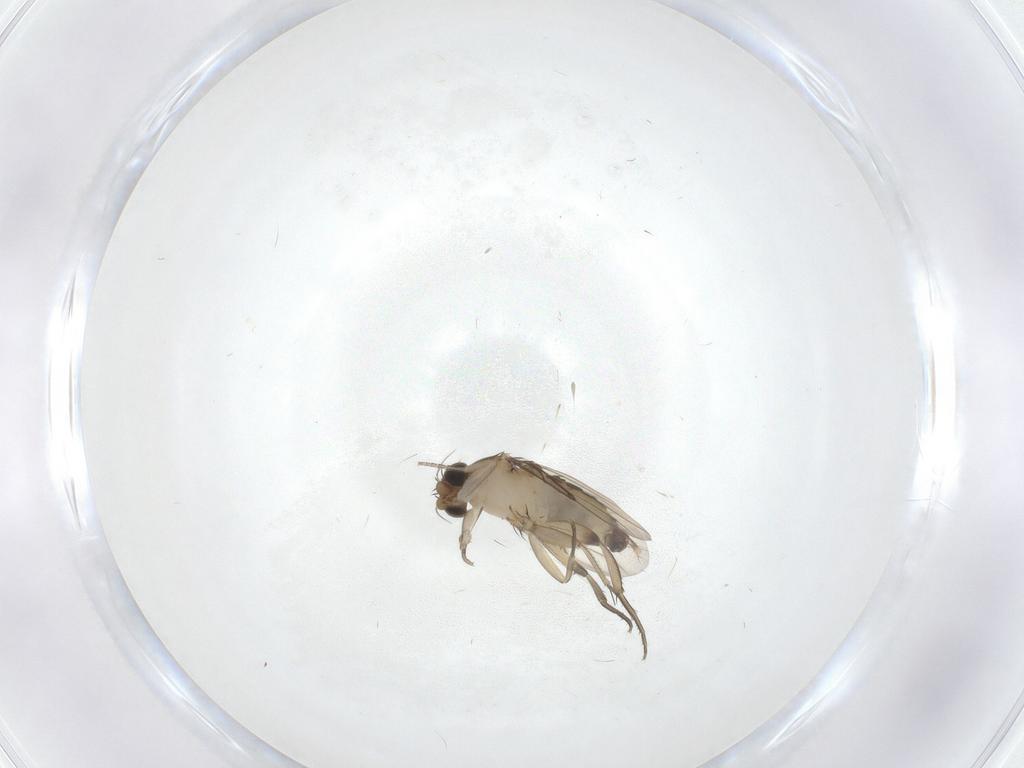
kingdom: Animalia
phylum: Arthropoda
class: Insecta
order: Diptera
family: Phoridae
